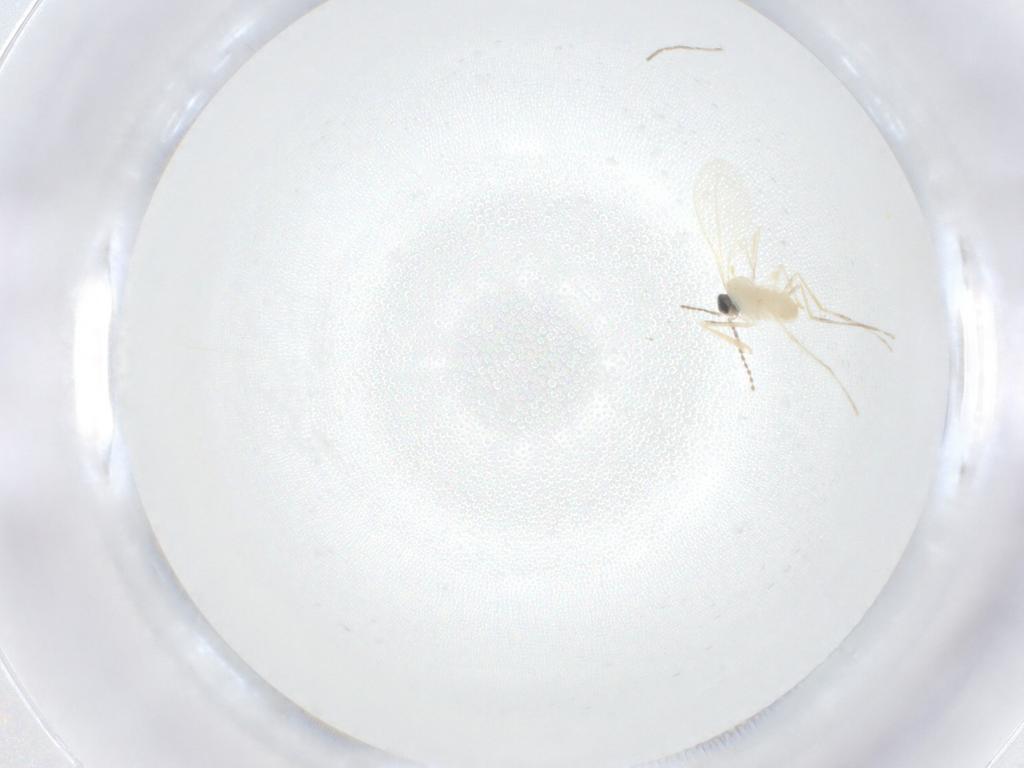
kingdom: Animalia
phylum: Arthropoda
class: Insecta
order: Diptera
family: Cecidomyiidae
